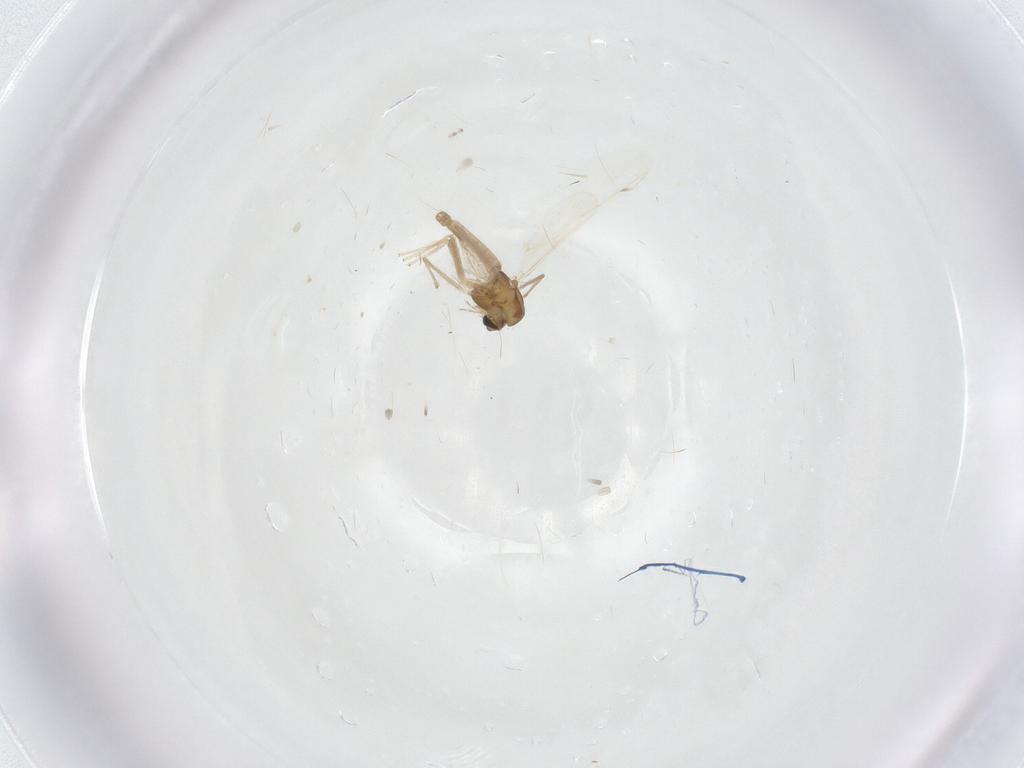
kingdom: Animalia
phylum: Arthropoda
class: Insecta
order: Diptera
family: Chironomidae
